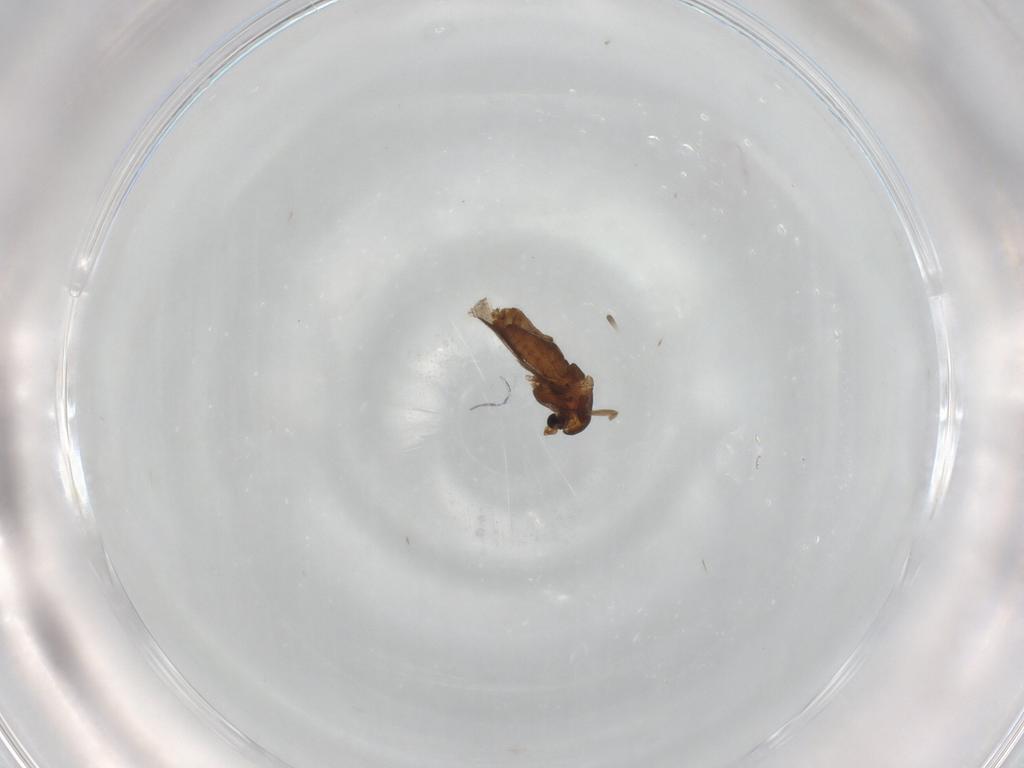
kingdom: Animalia
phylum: Arthropoda
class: Insecta
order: Diptera
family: Chironomidae
